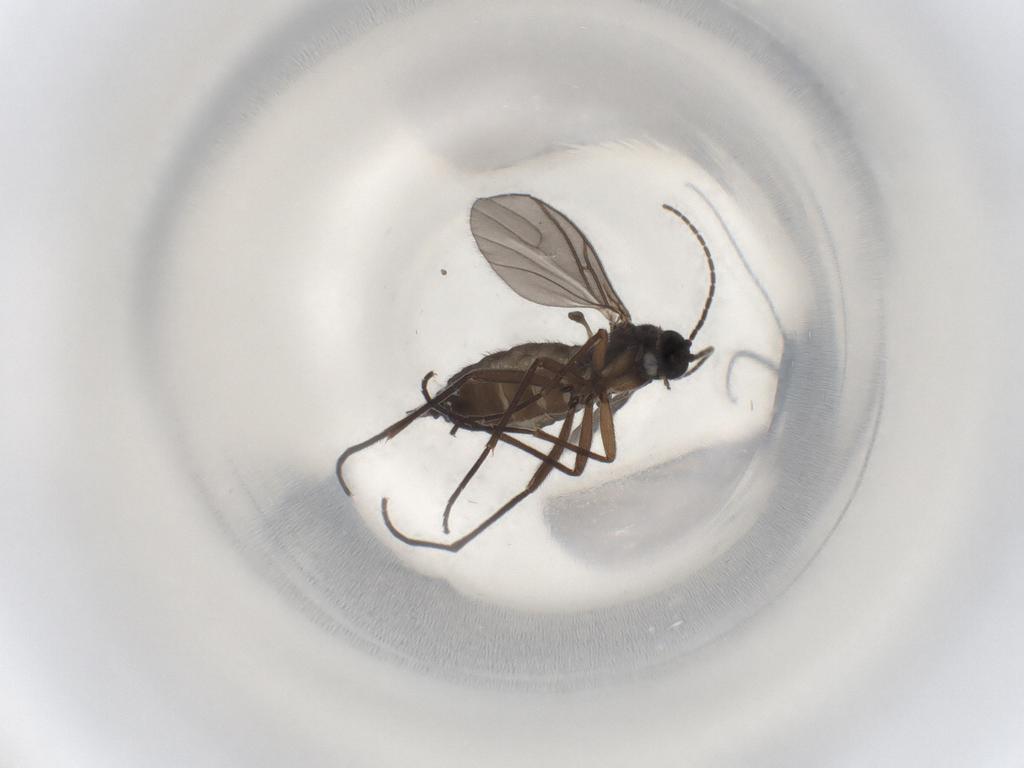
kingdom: Animalia
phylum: Arthropoda
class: Insecta
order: Diptera
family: Sciaridae
